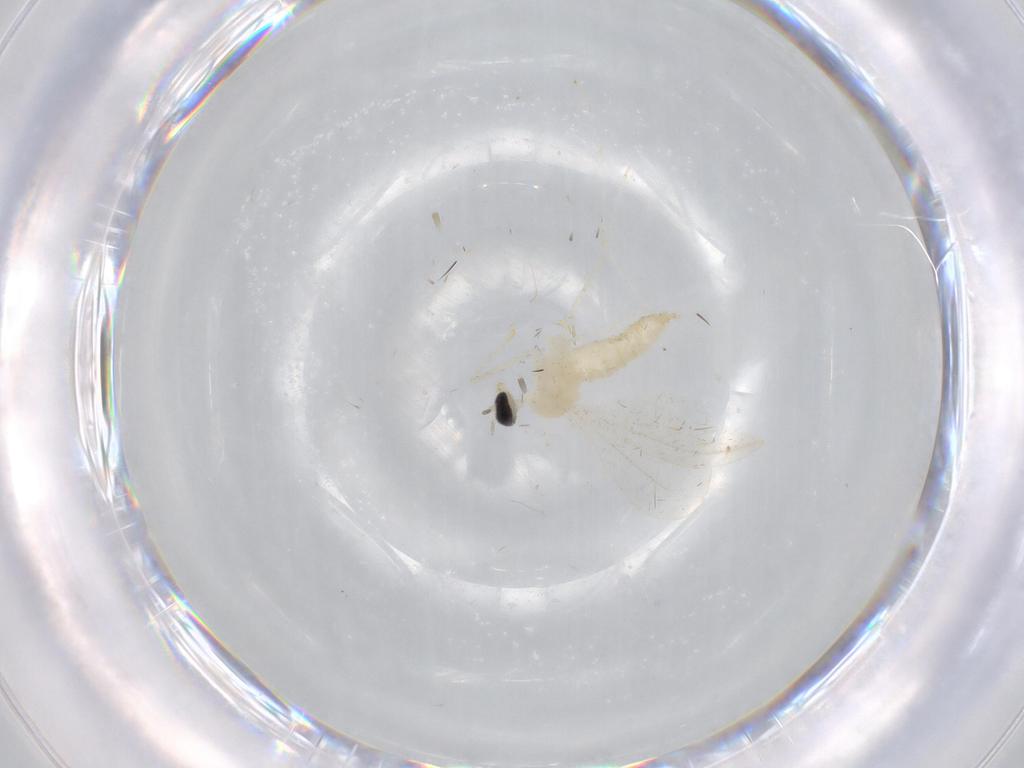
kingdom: Animalia
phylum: Arthropoda
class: Insecta
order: Diptera
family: Cecidomyiidae
